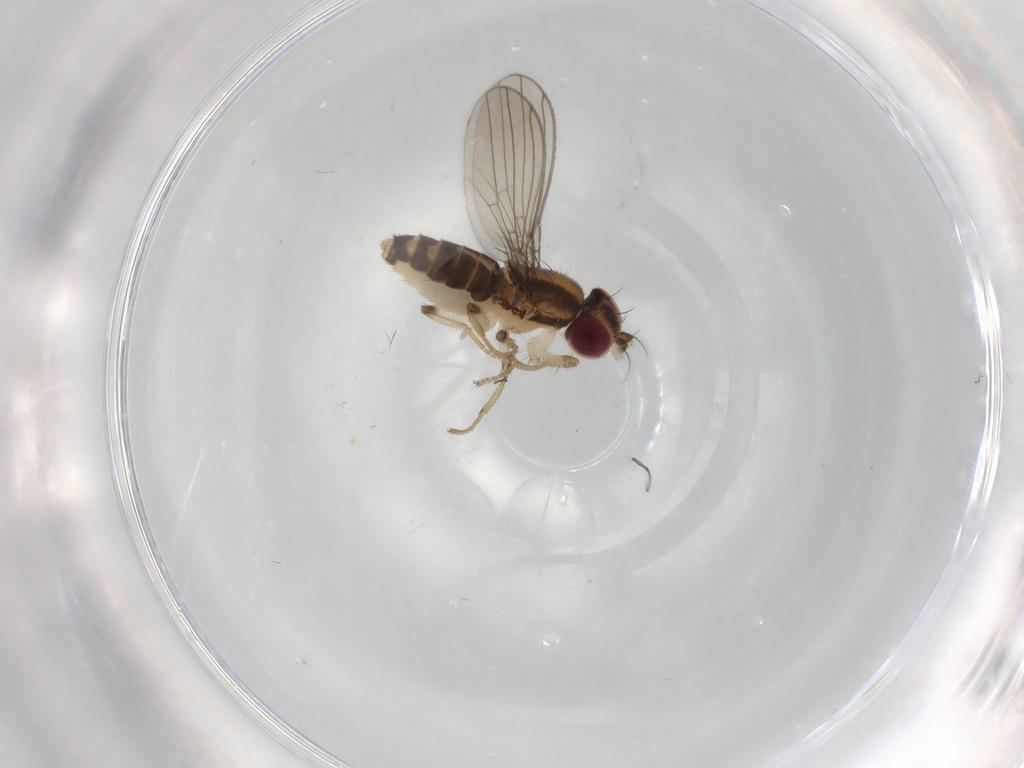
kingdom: Animalia
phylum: Arthropoda
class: Insecta
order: Diptera
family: Anthomyzidae
